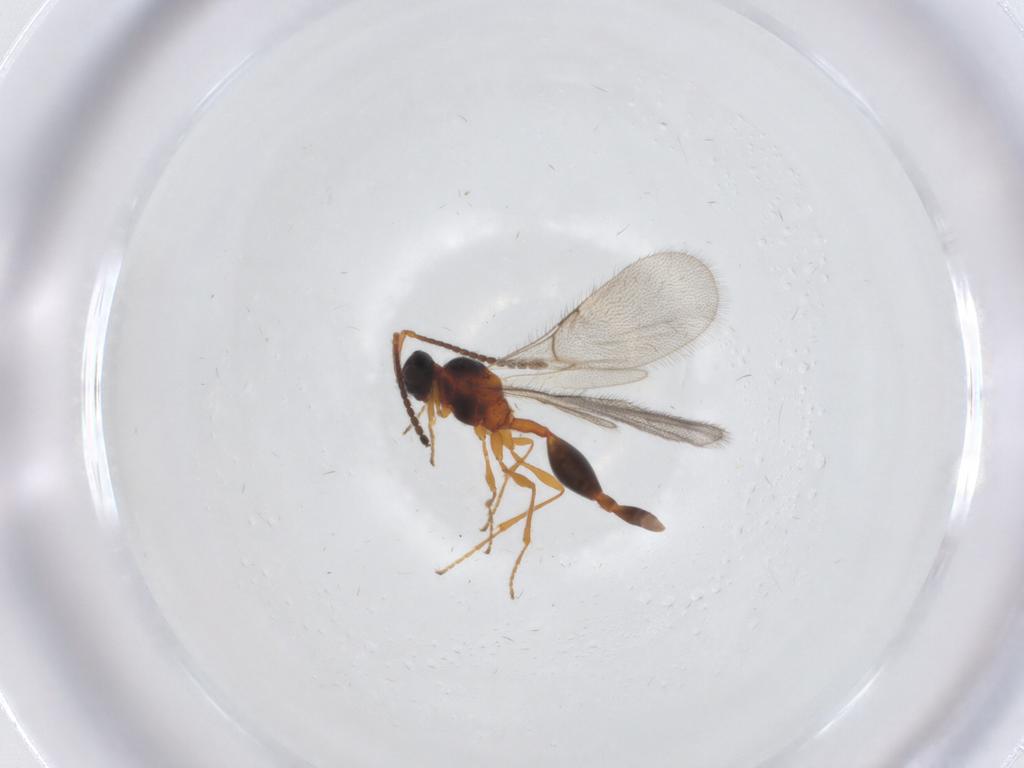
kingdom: Animalia
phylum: Arthropoda
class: Insecta
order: Hymenoptera
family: Diapriidae
